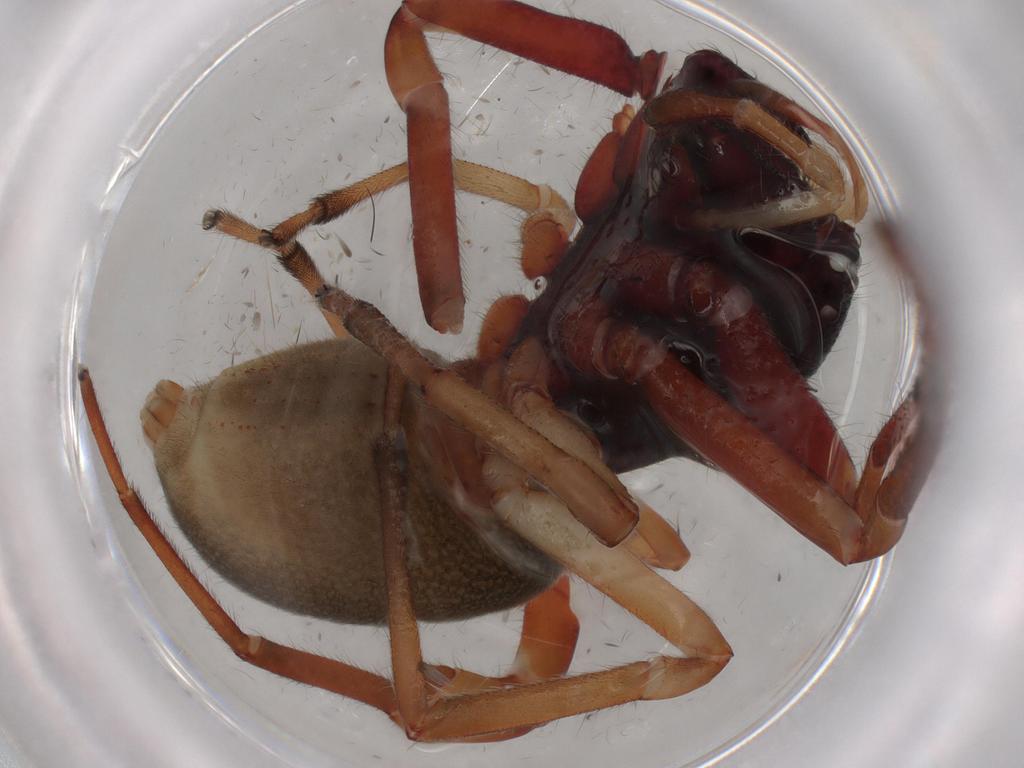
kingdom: Animalia
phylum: Arthropoda
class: Arachnida
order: Araneae
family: Trachelidae
